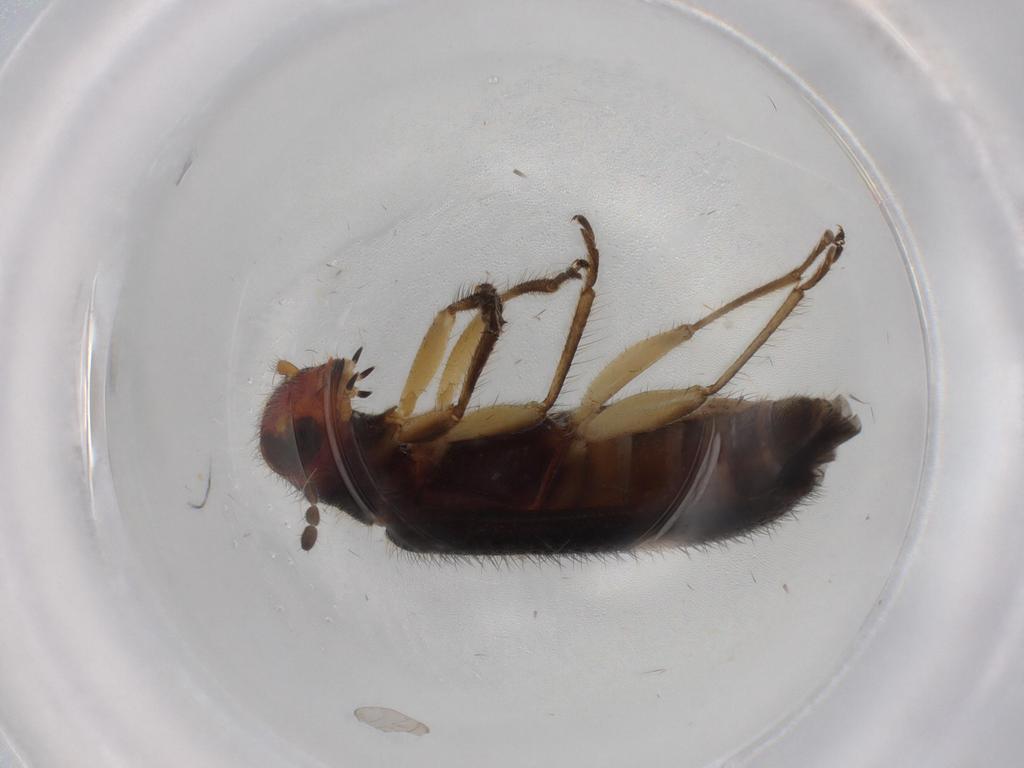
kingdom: Animalia
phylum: Arthropoda
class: Insecta
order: Coleoptera
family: Cleridae
